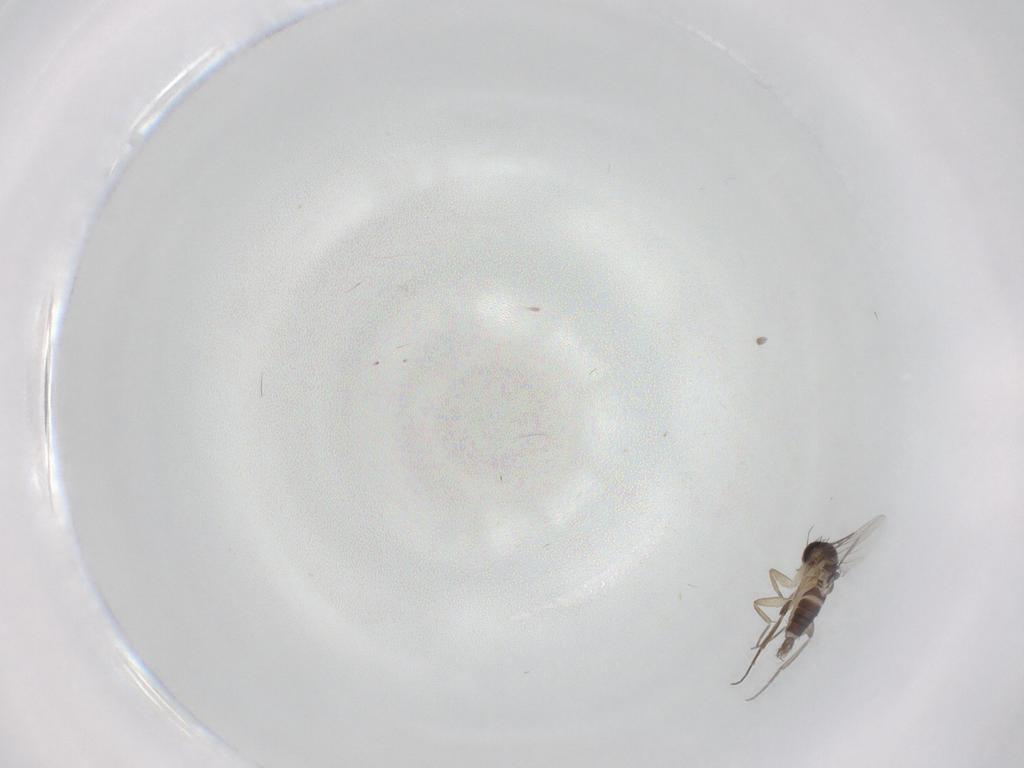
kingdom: Animalia
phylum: Arthropoda
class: Insecta
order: Diptera
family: Phoridae
